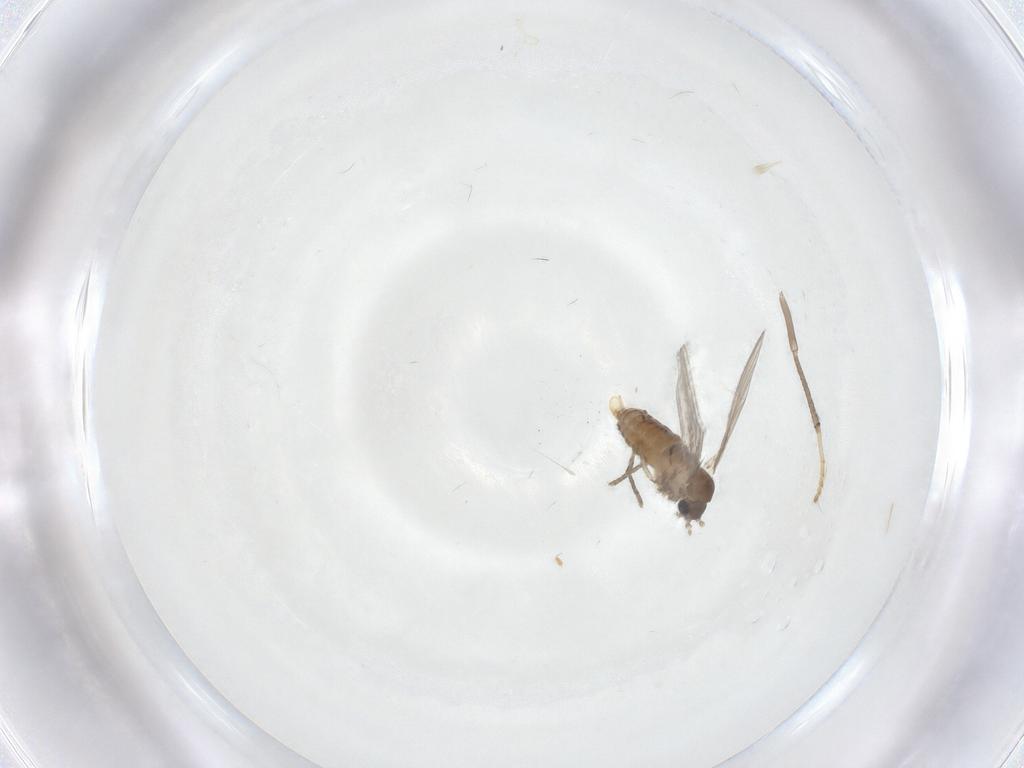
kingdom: Animalia
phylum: Arthropoda
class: Insecta
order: Diptera
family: Psychodidae
